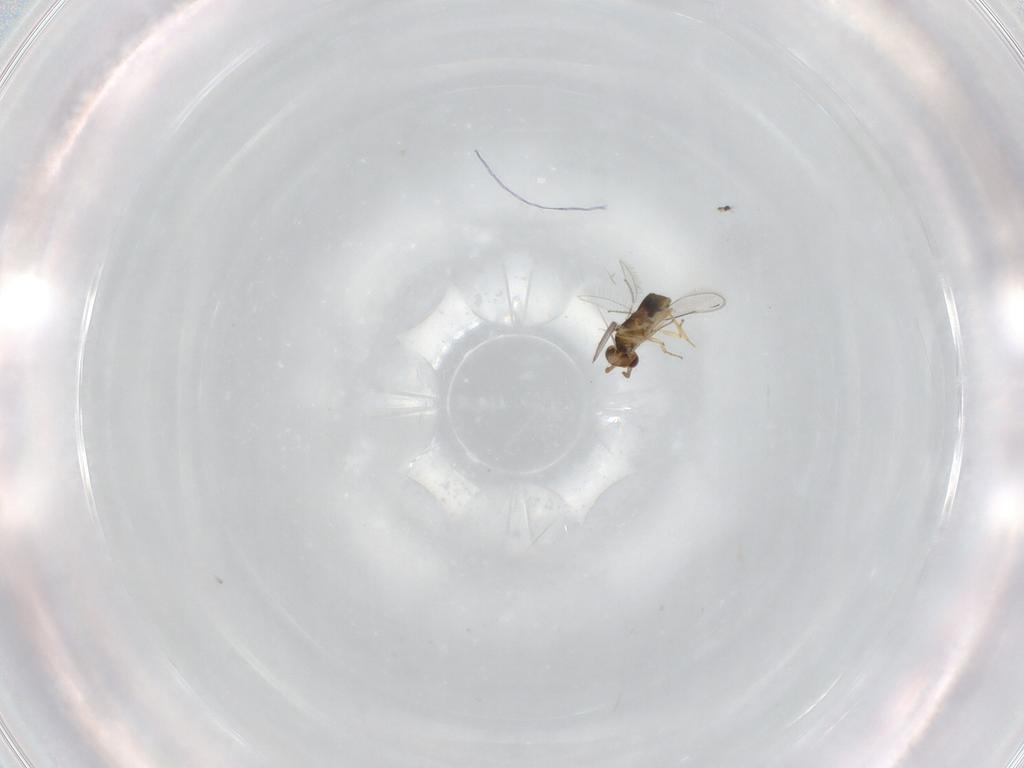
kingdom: Animalia
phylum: Arthropoda
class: Insecta
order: Hymenoptera
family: Aphelinidae
